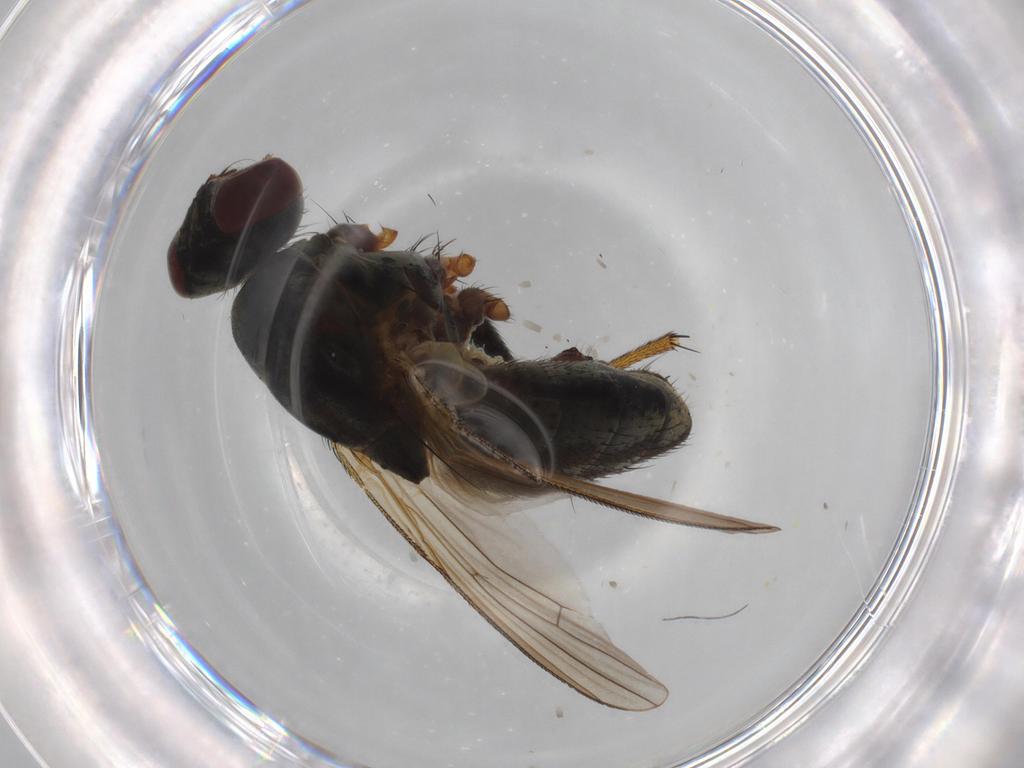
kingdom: Animalia
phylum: Arthropoda
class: Insecta
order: Diptera
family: Muscidae
